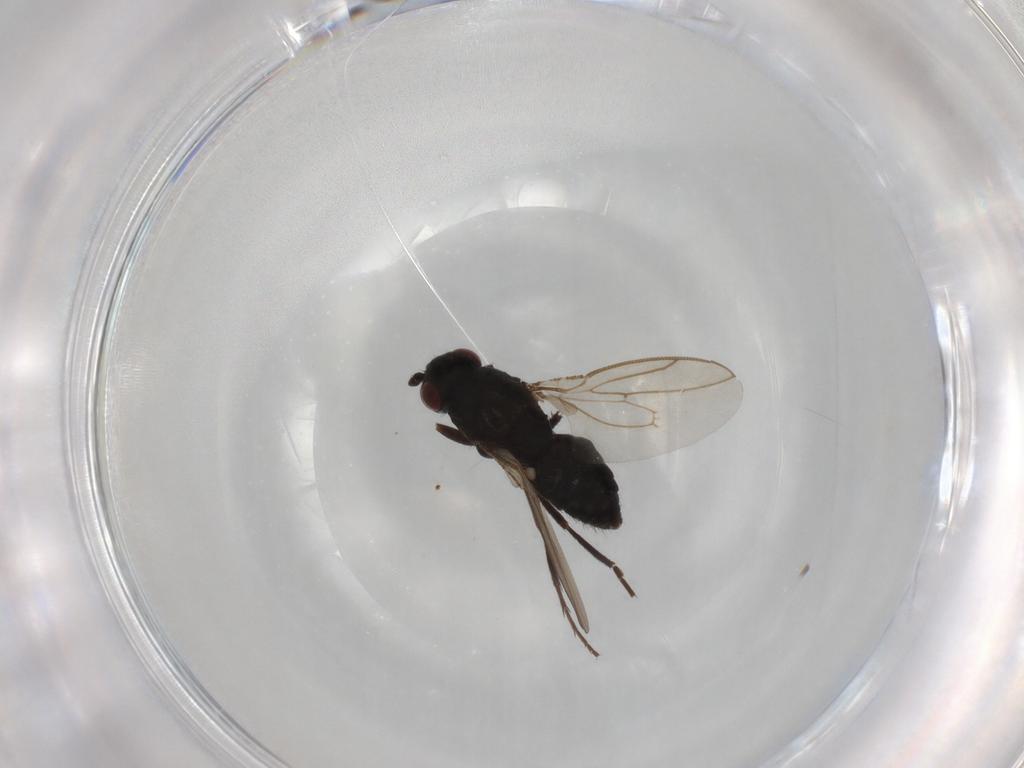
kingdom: Animalia
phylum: Arthropoda
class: Insecta
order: Diptera
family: Sphaeroceridae
